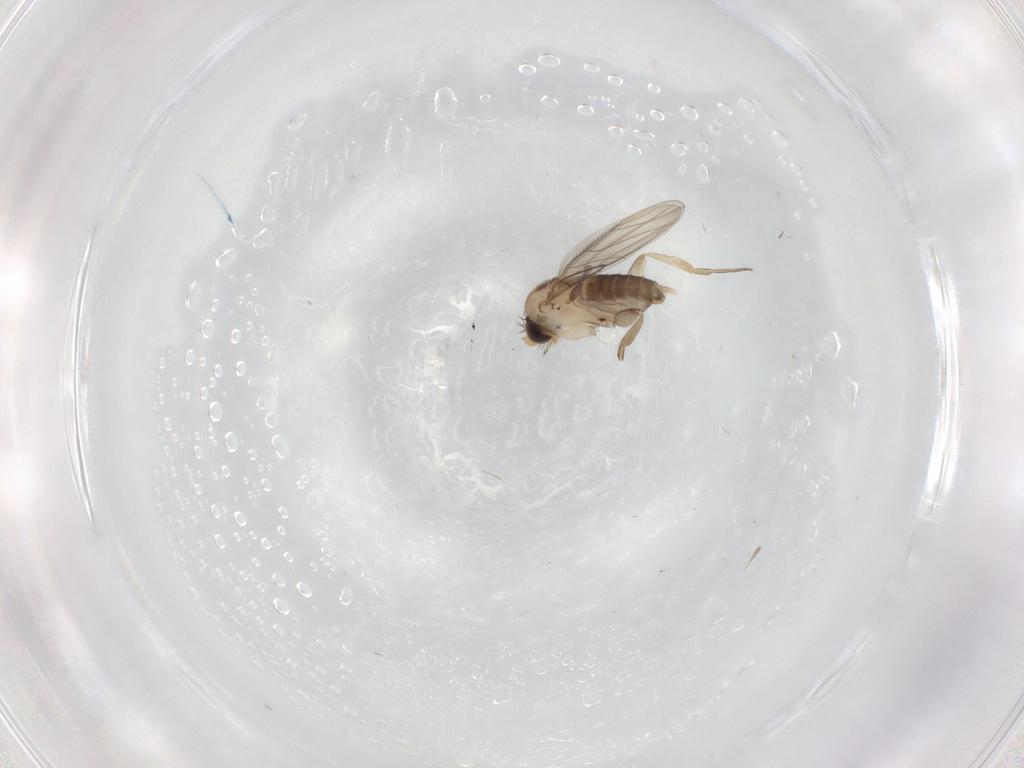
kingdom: Animalia
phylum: Arthropoda
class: Insecta
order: Diptera
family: Phoridae
